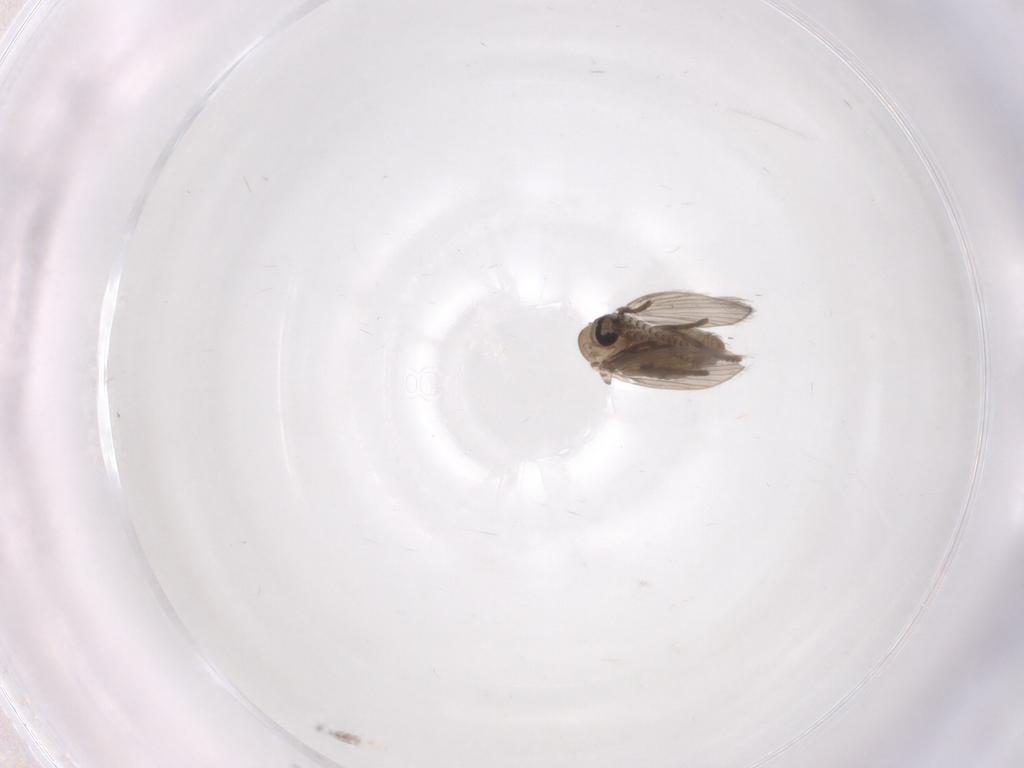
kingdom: Animalia
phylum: Arthropoda
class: Insecta
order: Diptera
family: Psychodidae
